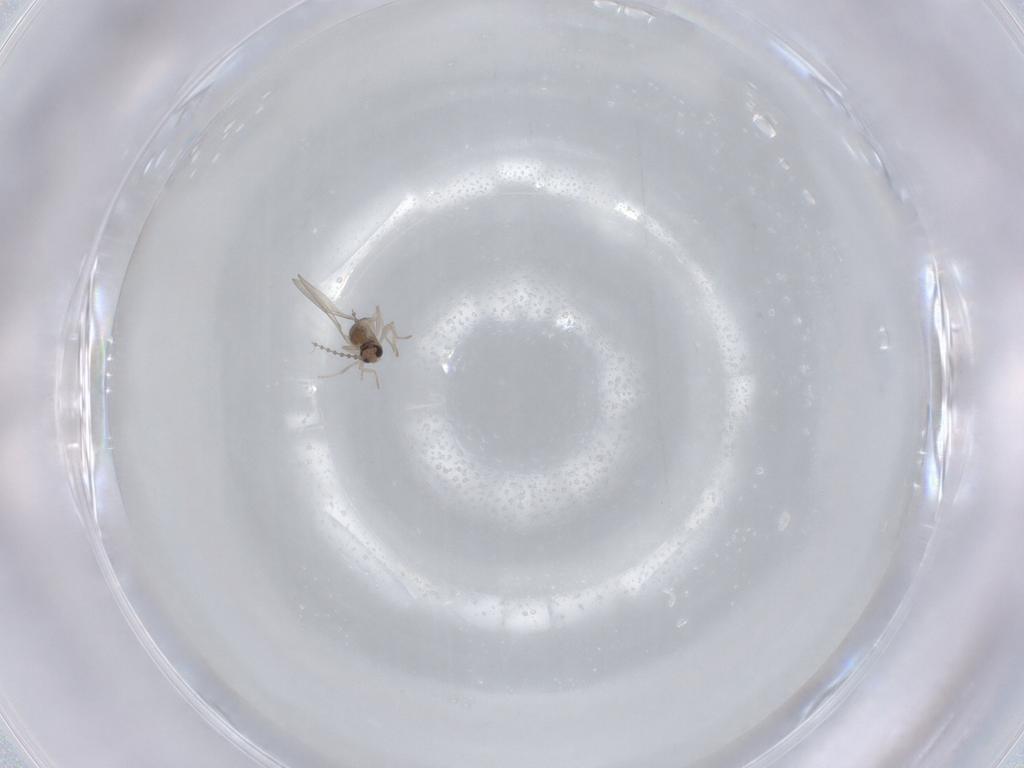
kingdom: Animalia
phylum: Arthropoda
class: Insecta
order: Diptera
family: Cecidomyiidae
